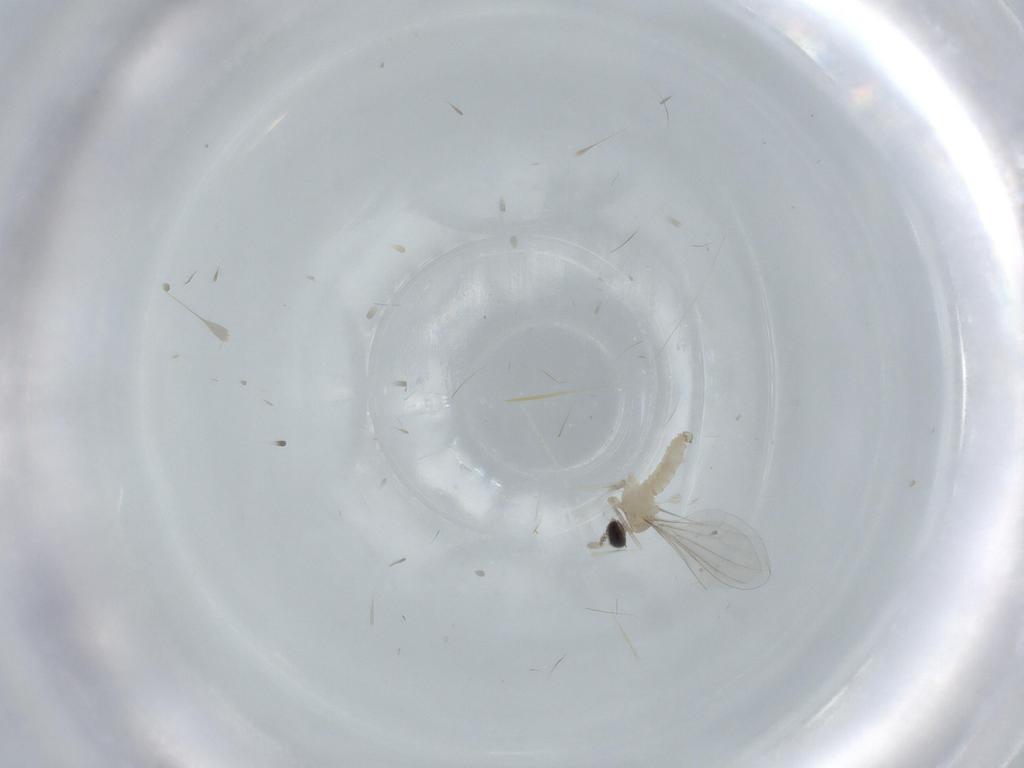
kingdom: Animalia
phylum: Arthropoda
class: Insecta
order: Diptera
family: Cecidomyiidae
